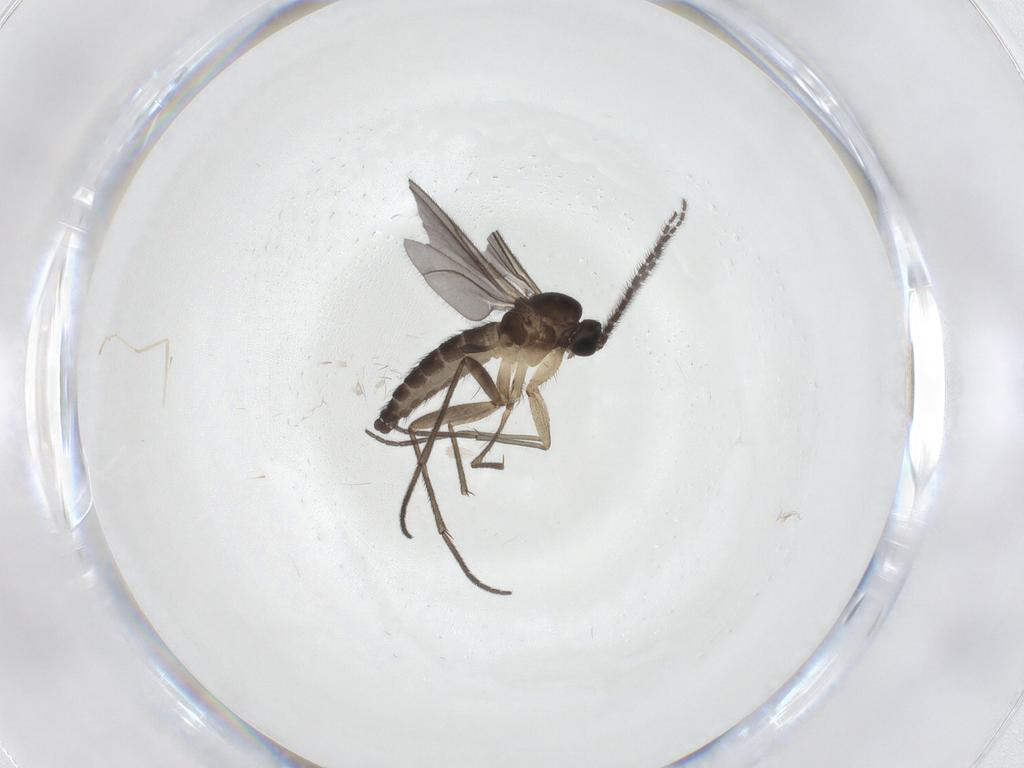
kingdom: Animalia
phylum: Arthropoda
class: Insecta
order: Diptera
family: Sciaridae
